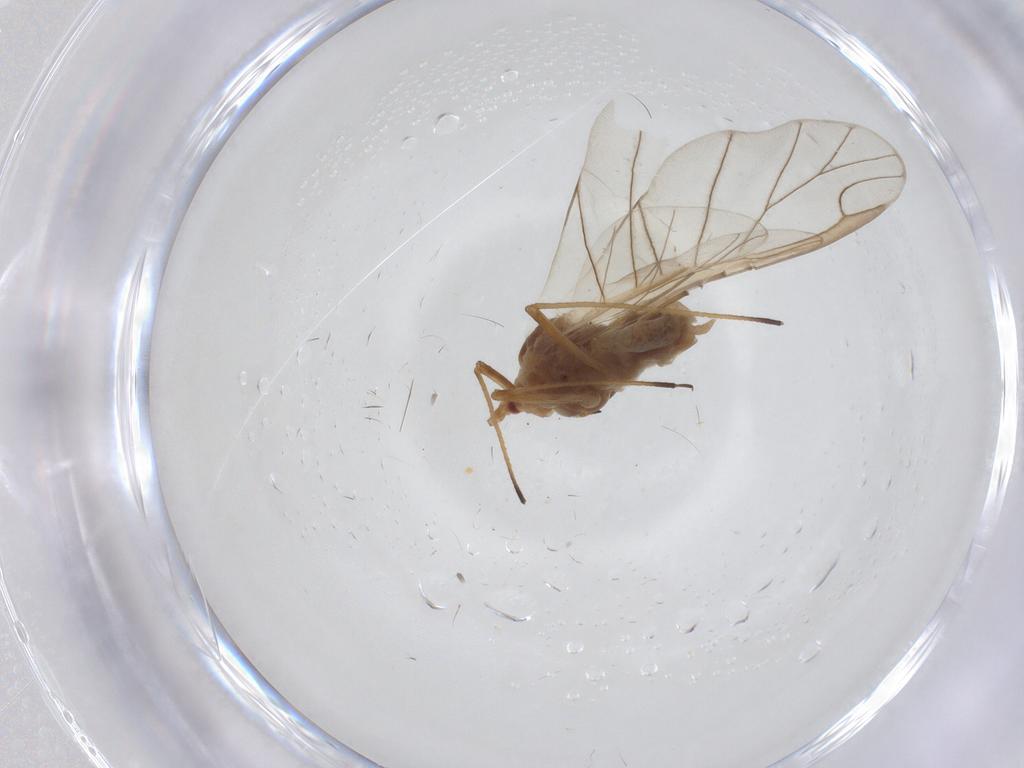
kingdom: Animalia
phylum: Arthropoda
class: Insecta
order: Hemiptera
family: Aphididae
